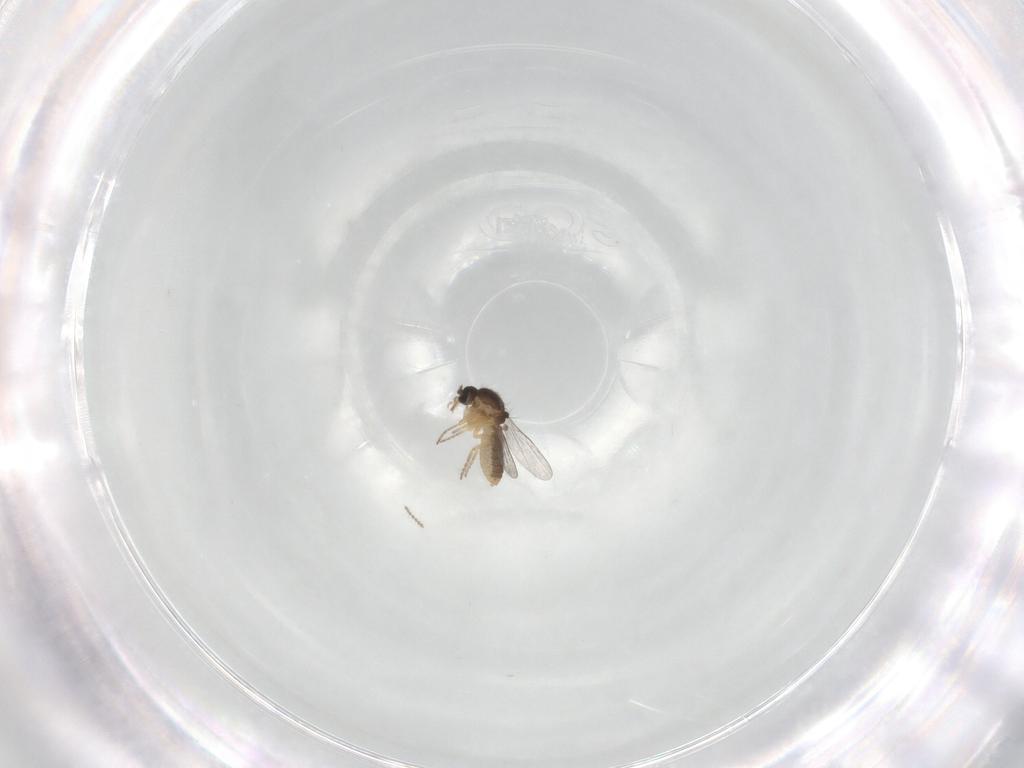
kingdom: Animalia
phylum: Arthropoda
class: Insecta
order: Diptera
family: Ceratopogonidae
